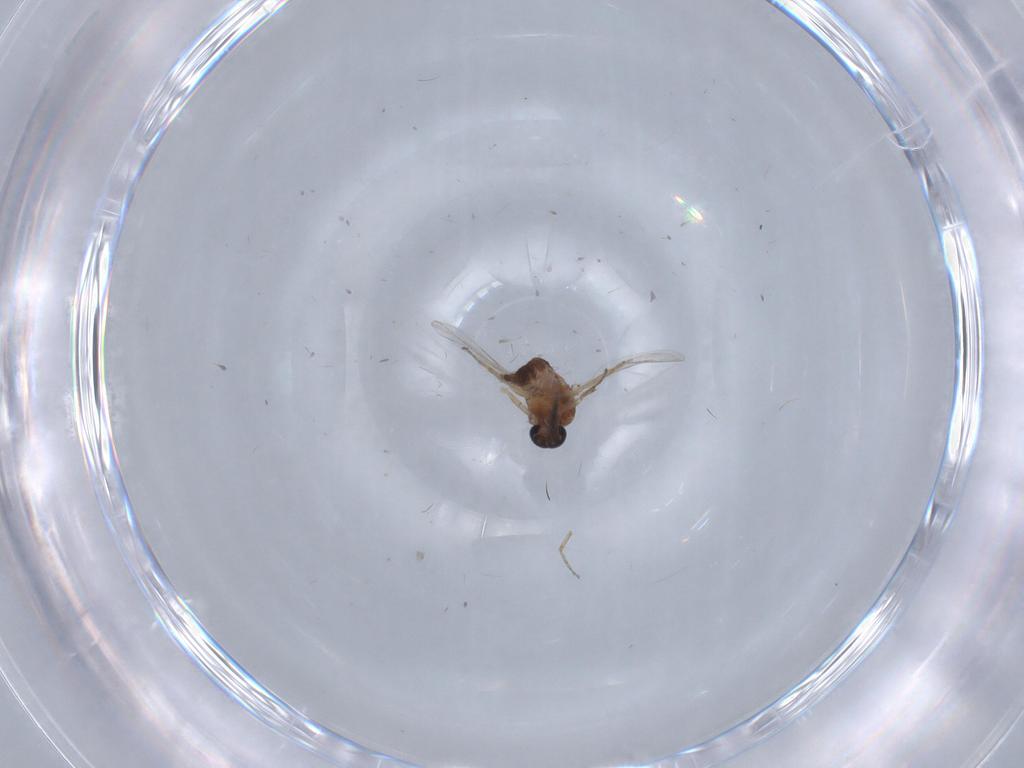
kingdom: Animalia
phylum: Arthropoda
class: Insecta
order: Diptera
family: Ceratopogonidae
